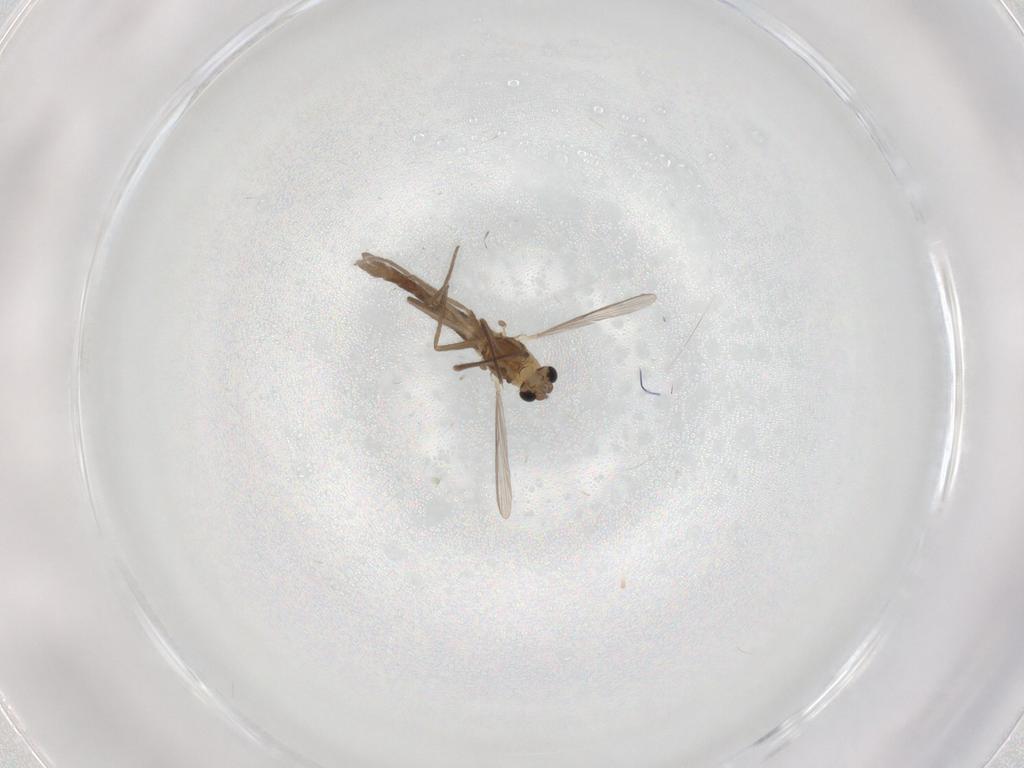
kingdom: Animalia
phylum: Arthropoda
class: Insecta
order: Diptera
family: Chironomidae
